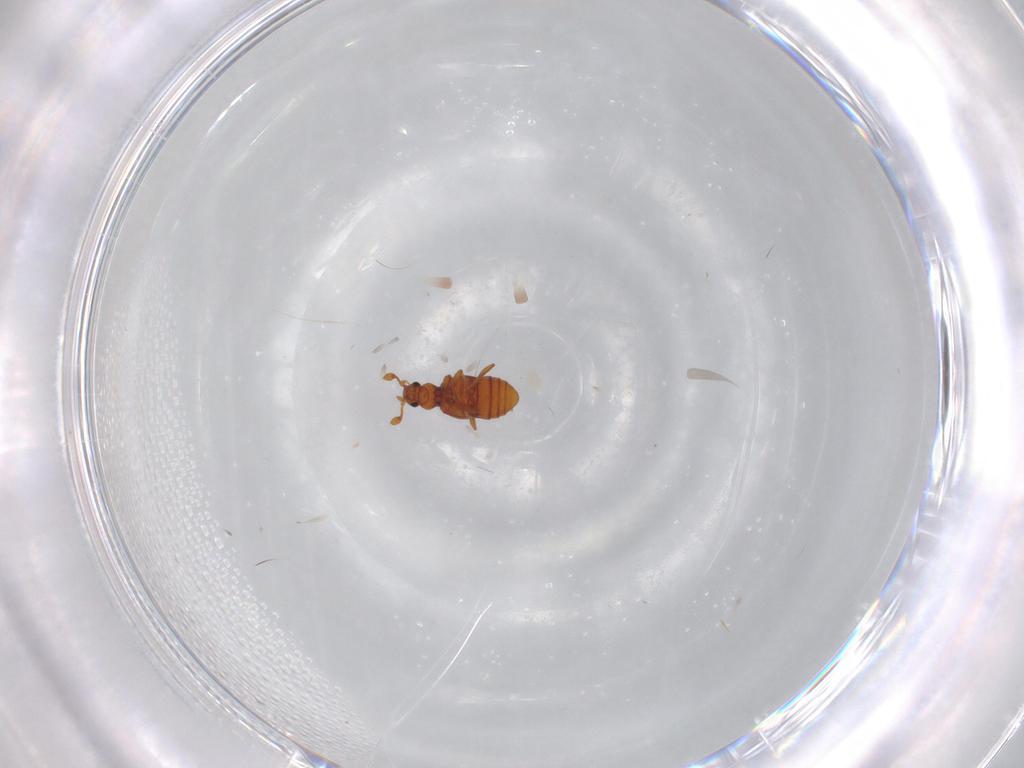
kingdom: Animalia
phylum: Arthropoda
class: Insecta
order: Coleoptera
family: Staphylinidae
